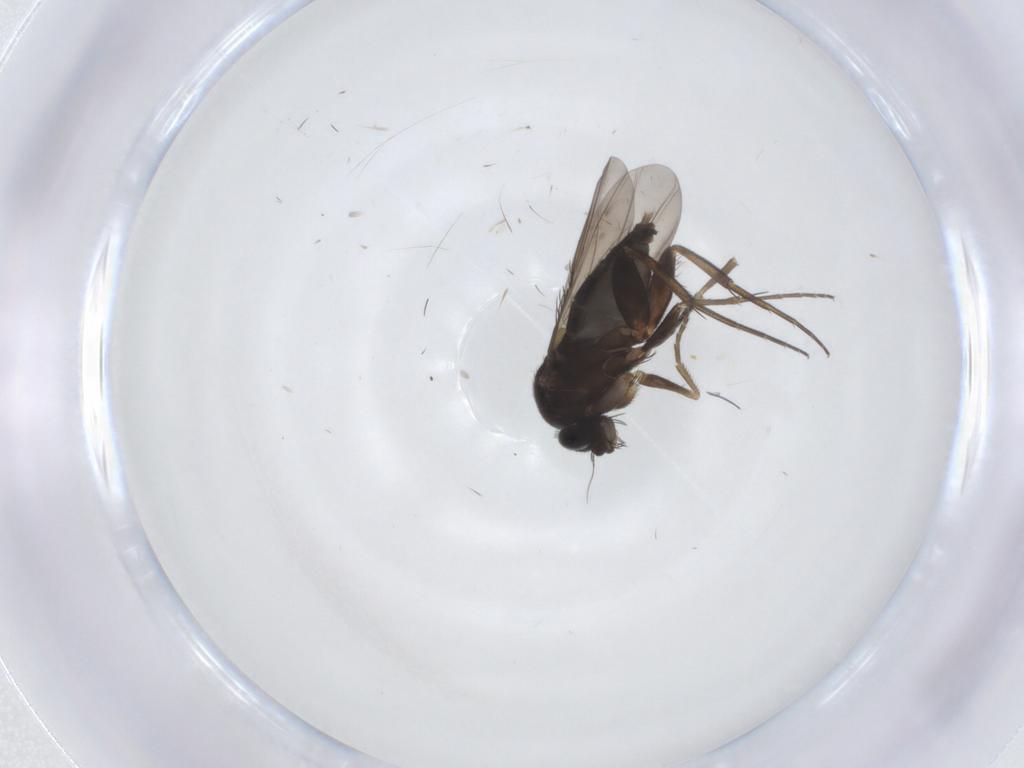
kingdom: Animalia
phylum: Arthropoda
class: Insecta
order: Diptera
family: Phoridae
